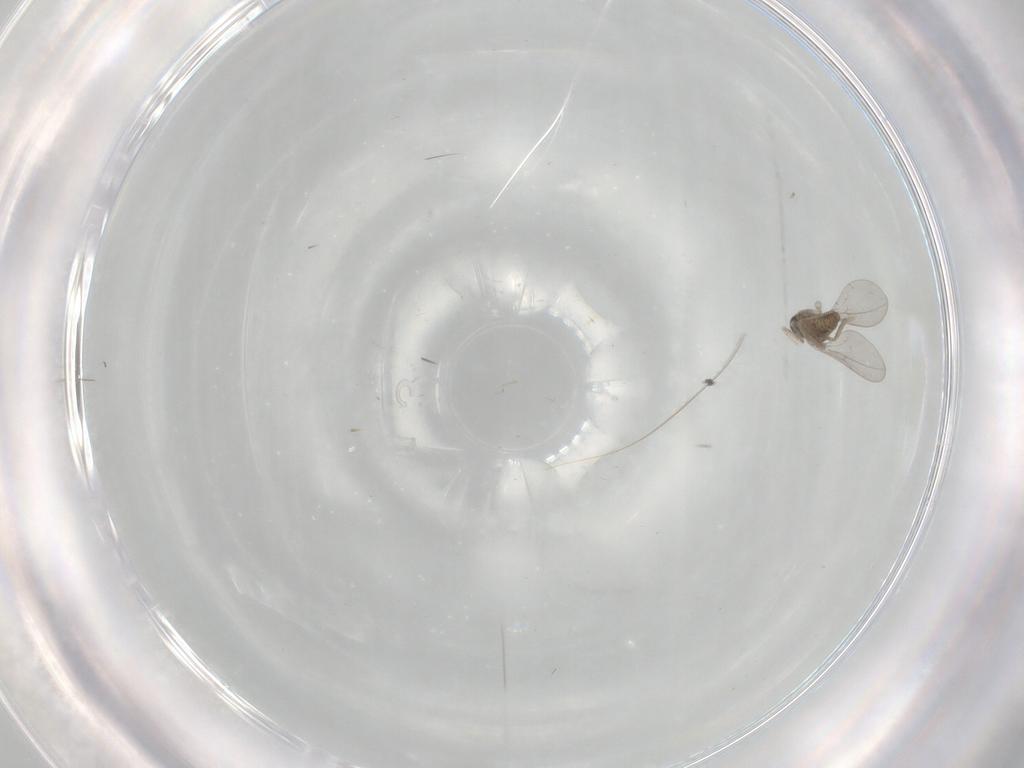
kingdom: Animalia
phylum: Arthropoda
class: Insecta
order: Diptera
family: Cecidomyiidae
